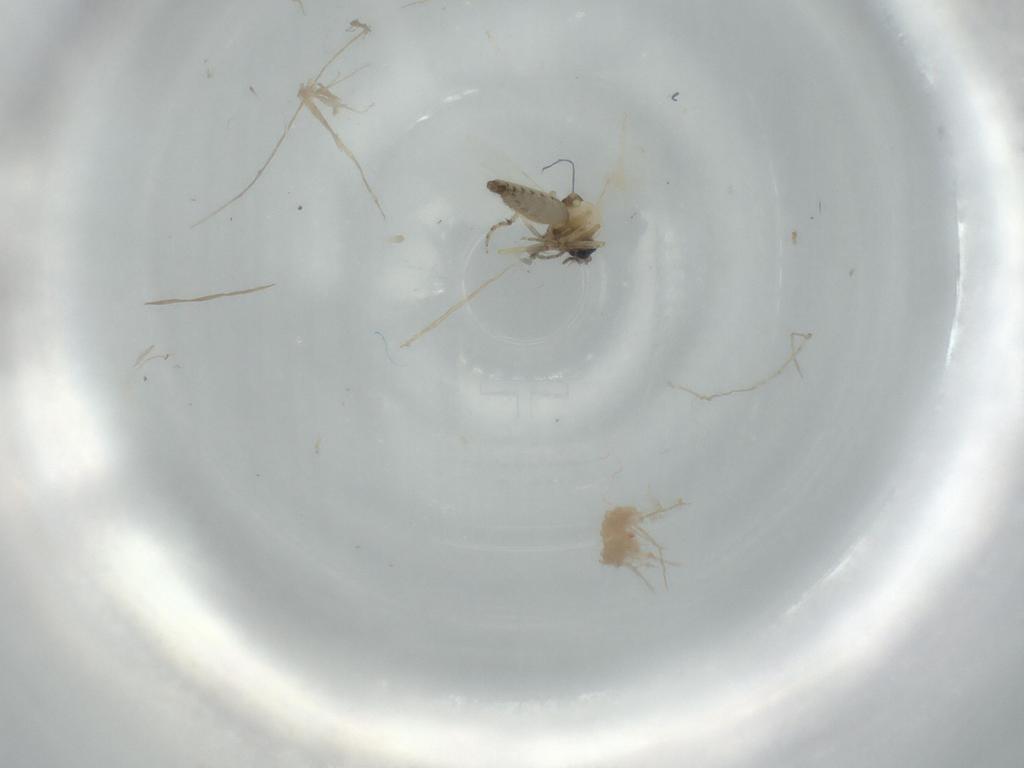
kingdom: Animalia
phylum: Arthropoda
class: Insecta
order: Diptera
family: Ceratopogonidae
